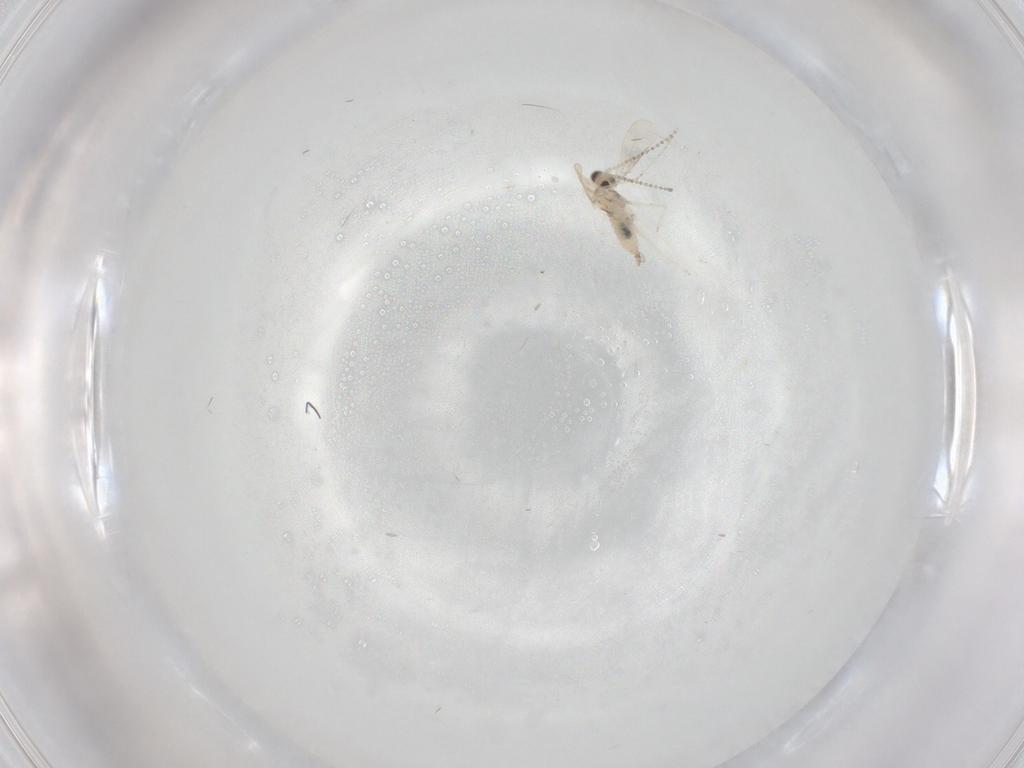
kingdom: Animalia
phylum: Arthropoda
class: Insecta
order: Diptera
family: Cecidomyiidae
